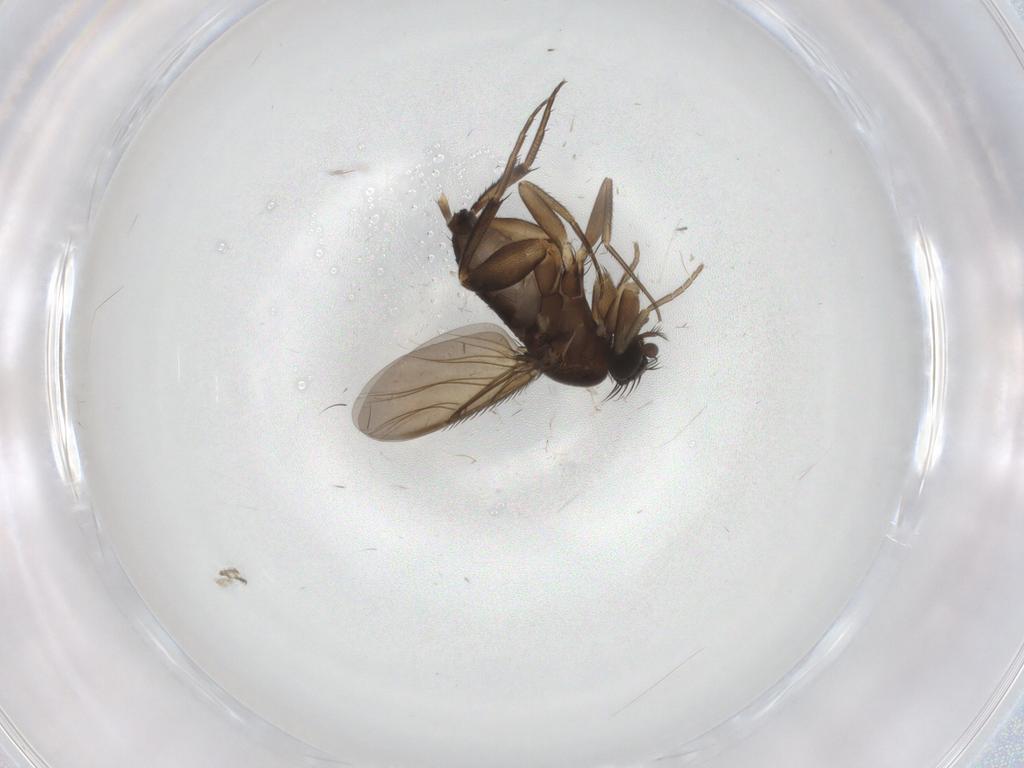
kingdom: Animalia
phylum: Arthropoda
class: Insecta
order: Diptera
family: Phoridae
